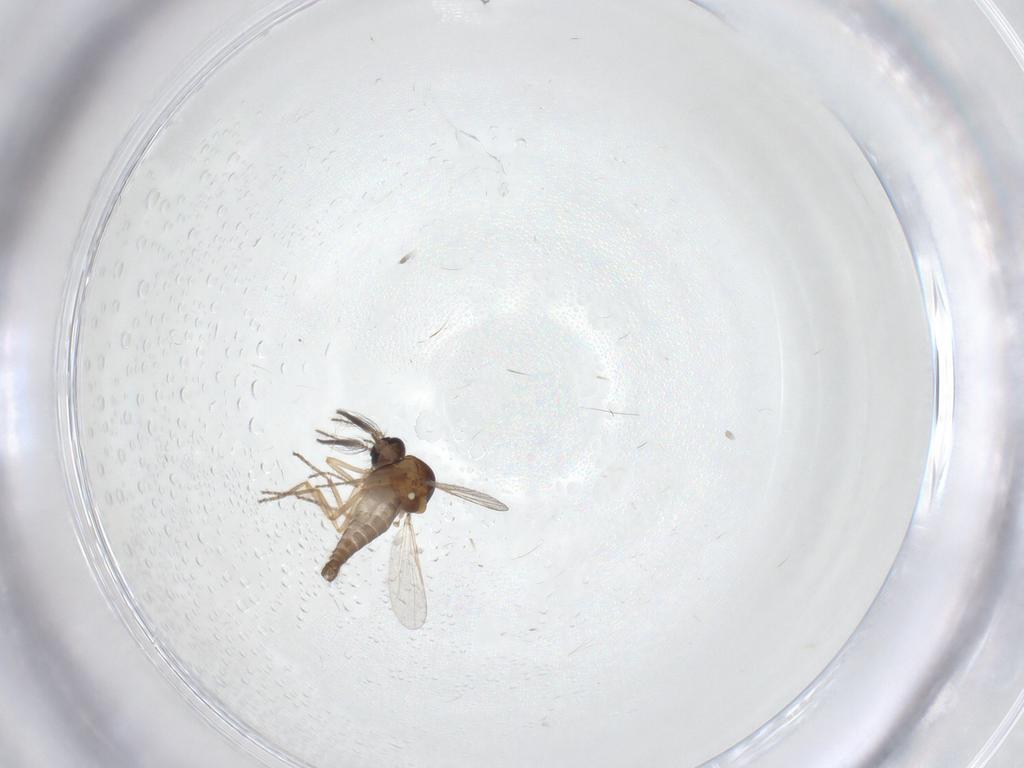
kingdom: Animalia
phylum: Arthropoda
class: Insecta
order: Diptera
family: Ceratopogonidae
